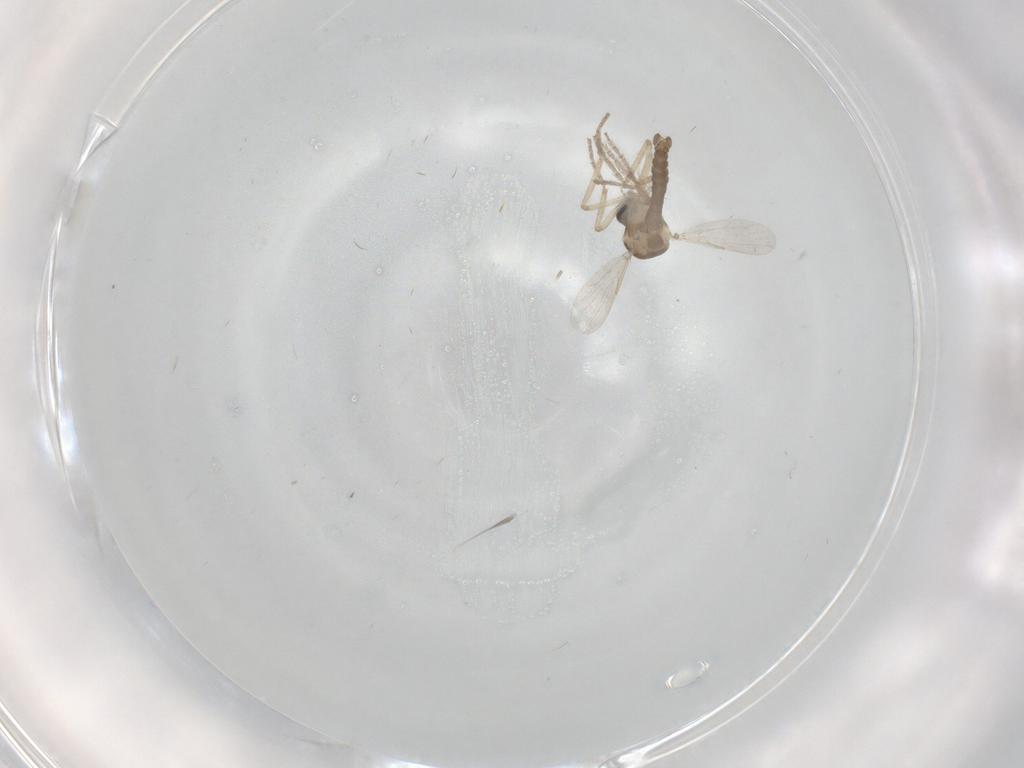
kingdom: Animalia
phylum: Arthropoda
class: Insecta
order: Diptera
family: Ceratopogonidae
